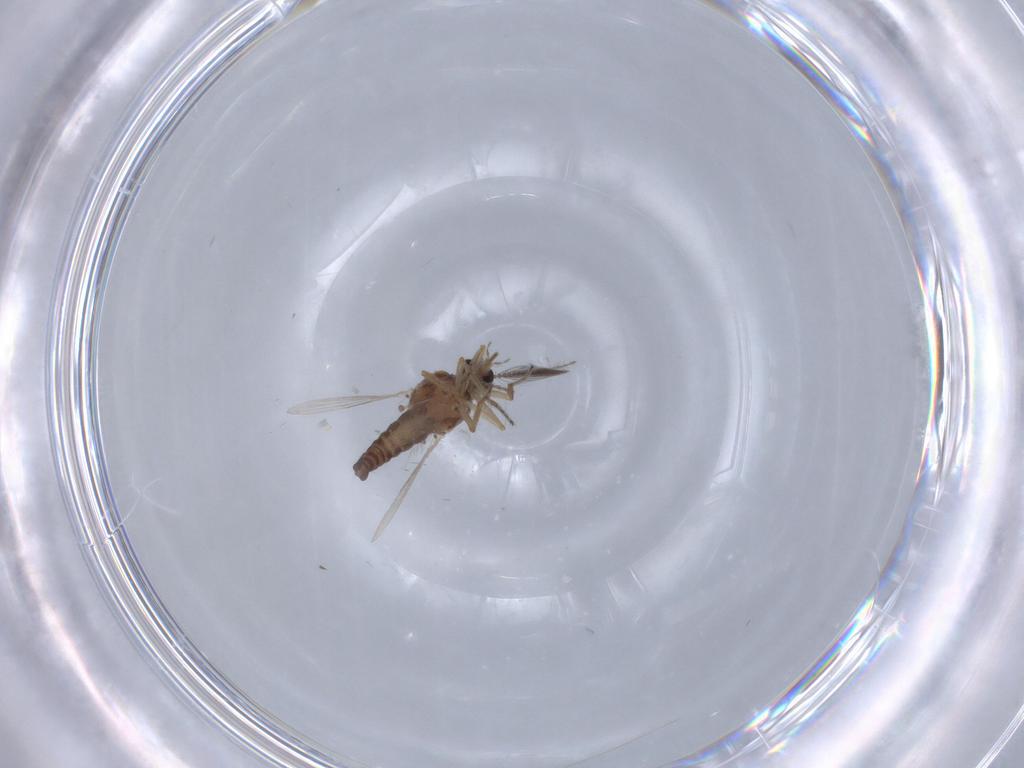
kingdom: Animalia
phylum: Arthropoda
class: Insecta
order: Diptera
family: Ceratopogonidae
